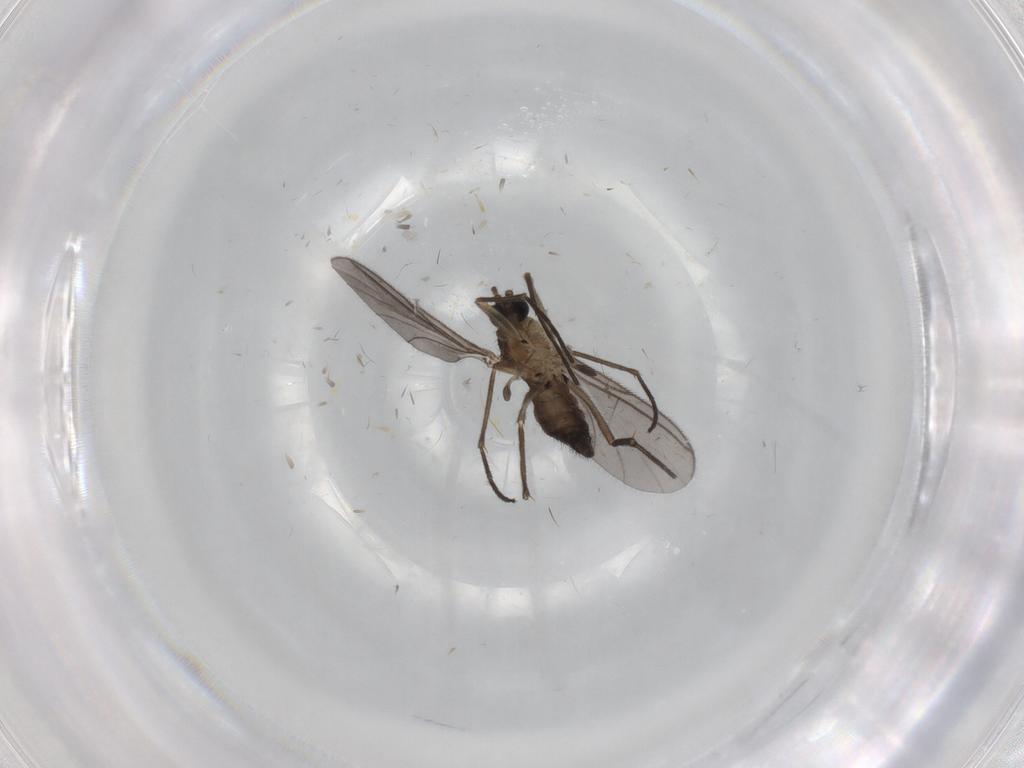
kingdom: Animalia
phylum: Arthropoda
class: Insecta
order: Diptera
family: Sciaridae
